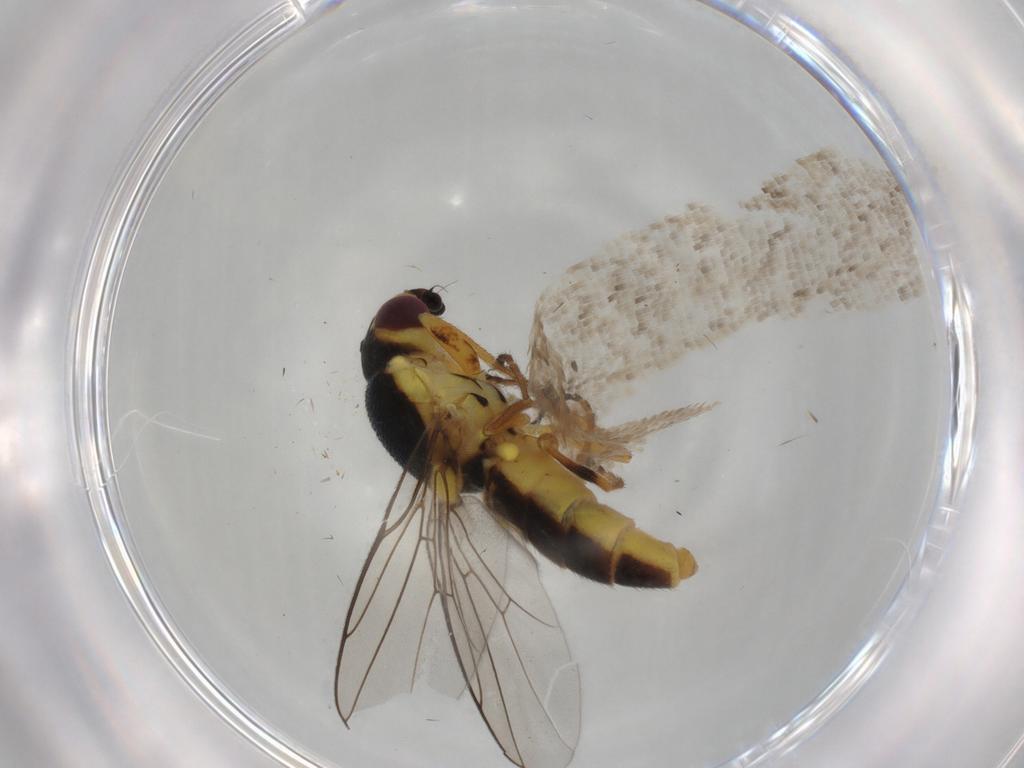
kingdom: Animalia
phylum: Arthropoda
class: Insecta
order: Diptera
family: Chloropidae
